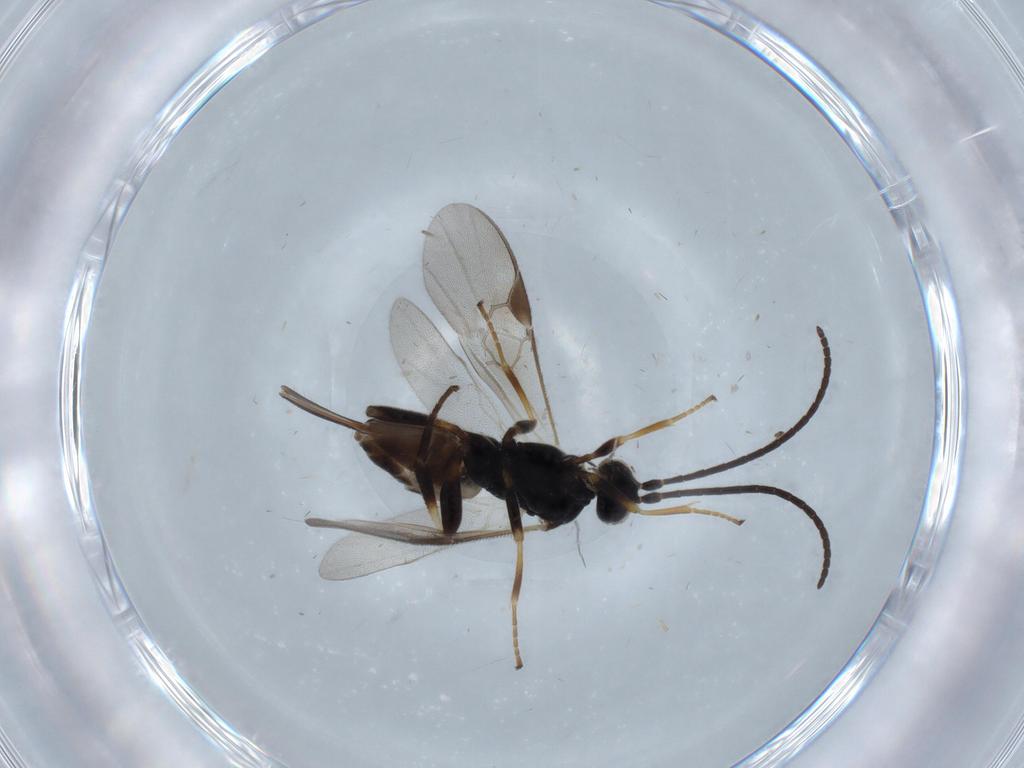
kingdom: Animalia
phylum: Arthropoda
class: Insecta
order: Hymenoptera
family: Braconidae
